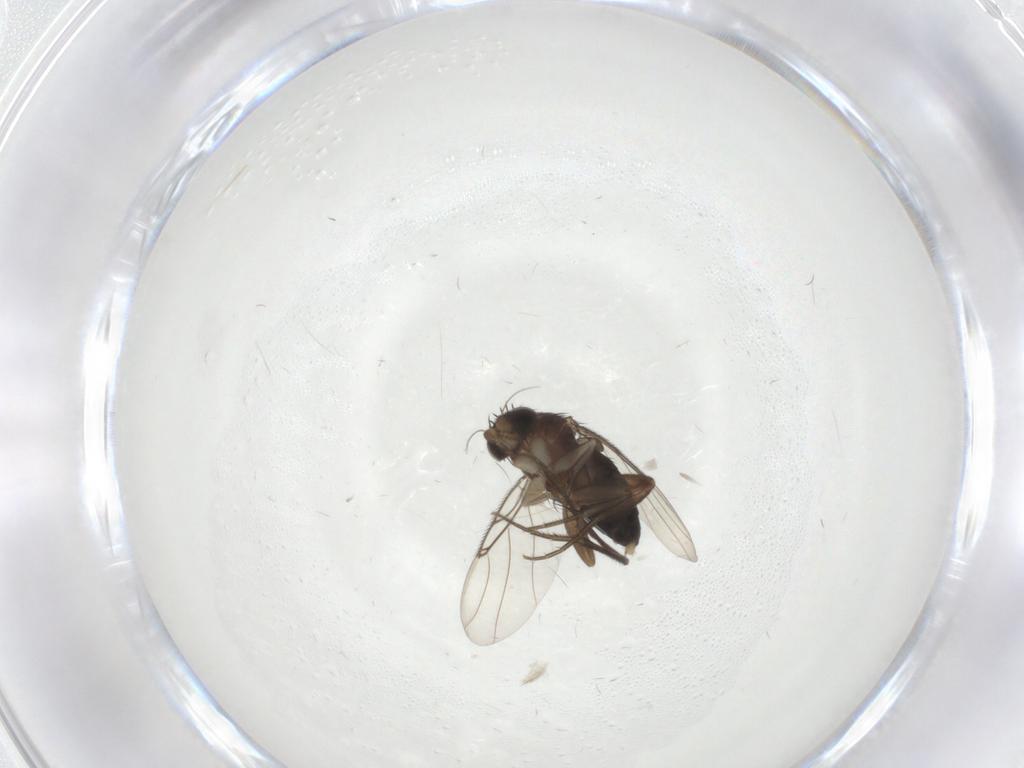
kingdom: Animalia
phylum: Arthropoda
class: Insecta
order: Diptera
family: Phoridae
